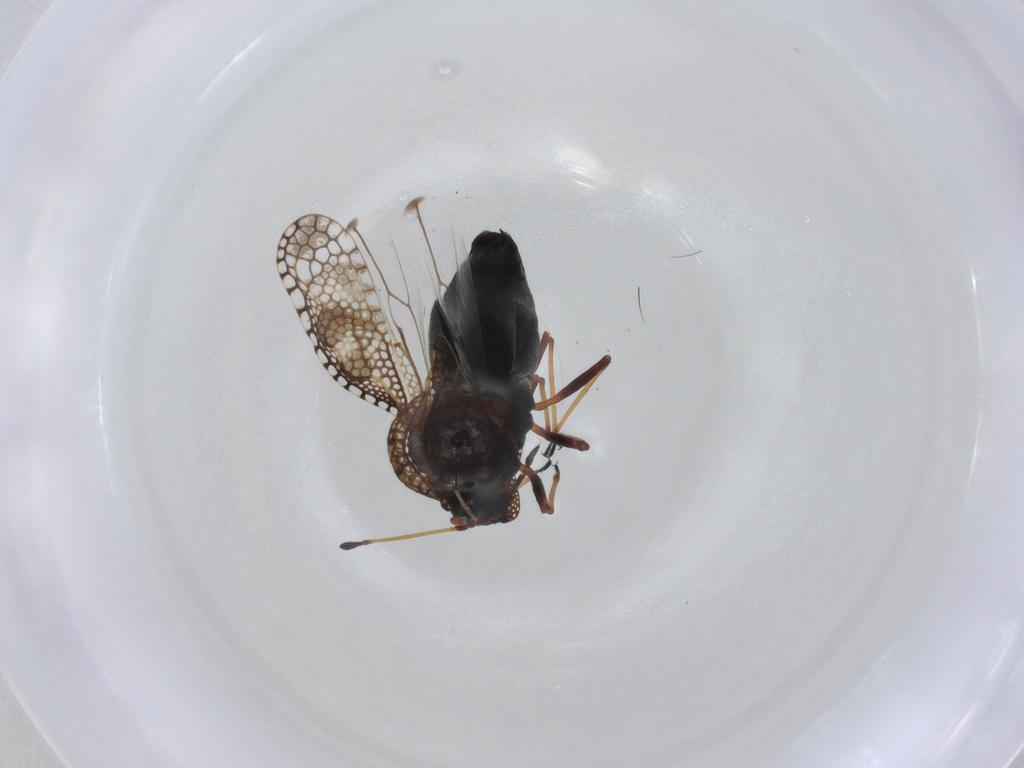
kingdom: Animalia
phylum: Arthropoda
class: Insecta
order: Hemiptera
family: Tingidae
